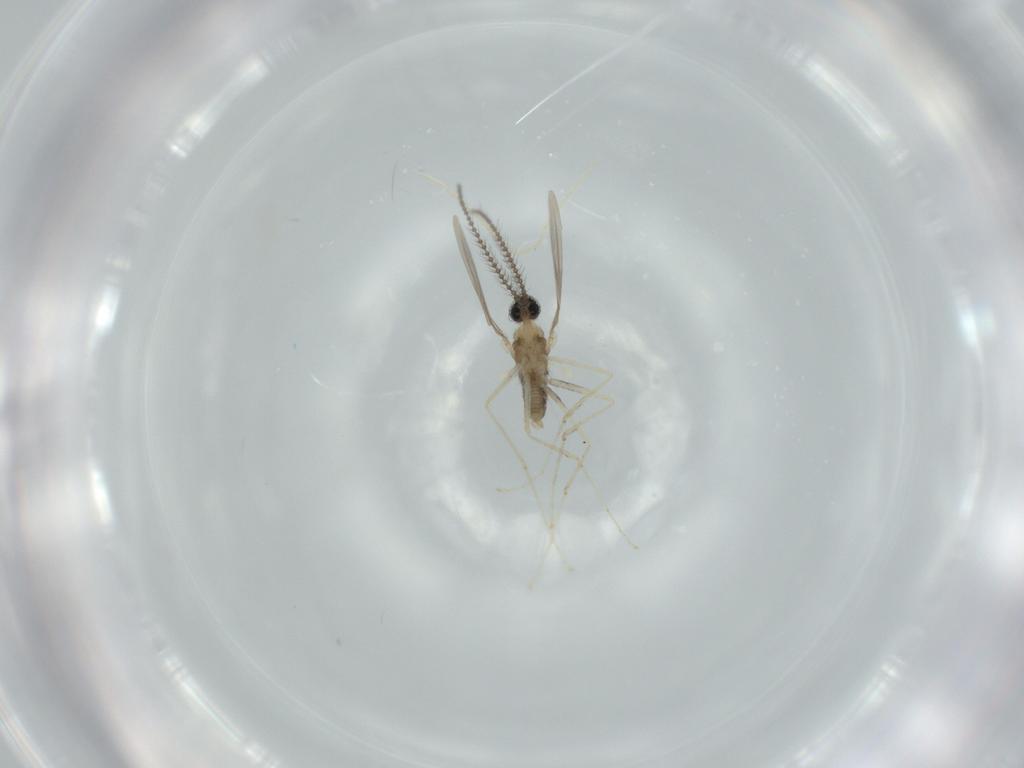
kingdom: Animalia
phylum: Arthropoda
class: Insecta
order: Diptera
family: Cecidomyiidae
